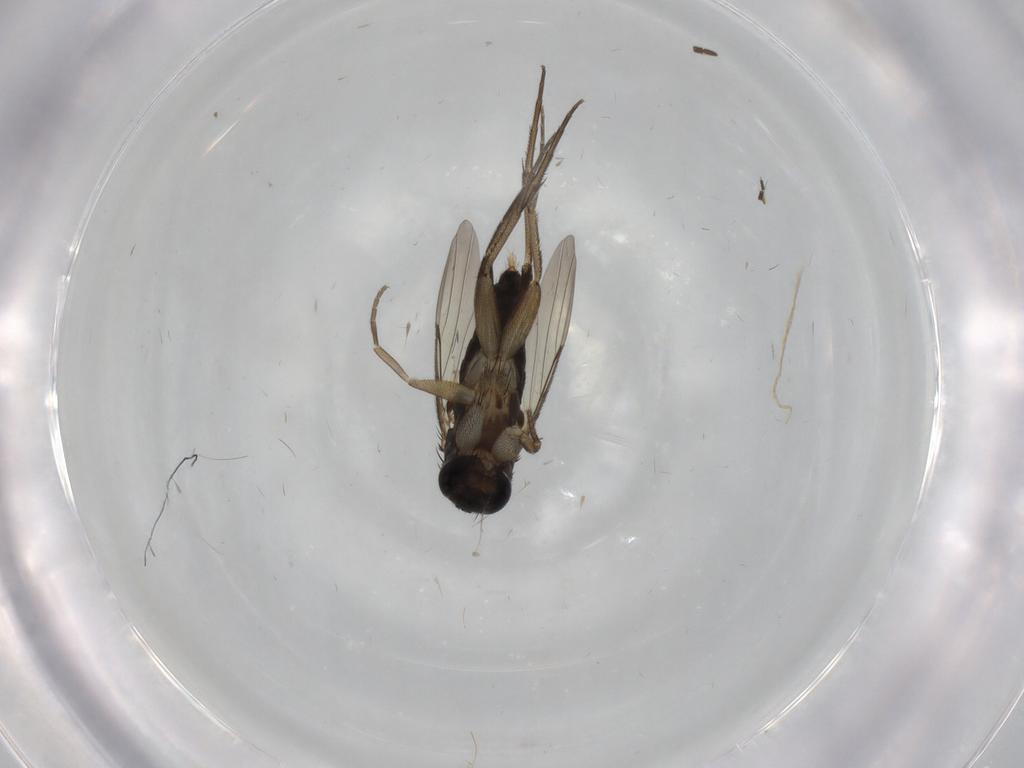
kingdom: Animalia
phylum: Arthropoda
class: Insecta
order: Diptera
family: Phoridae
